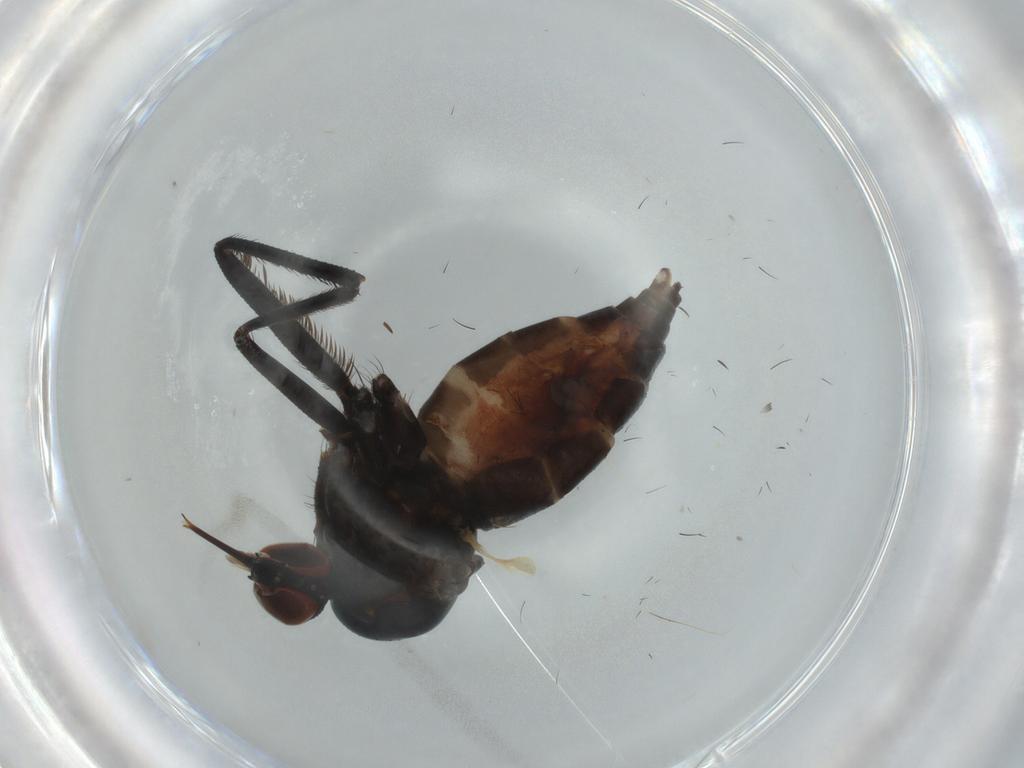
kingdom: Animalia
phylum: Arthropoda
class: Insecta
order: Diptera
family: Empididae
